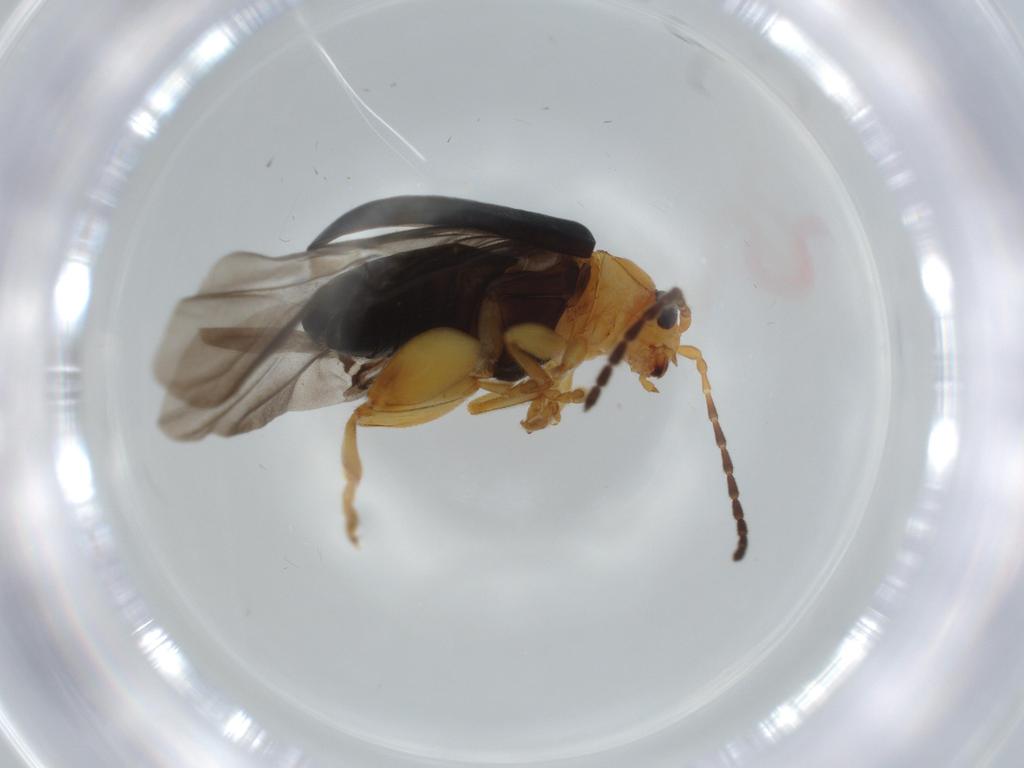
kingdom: Animalia
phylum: Arthropoda
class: Insecta
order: Coleoptera
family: Chrysomelidae
